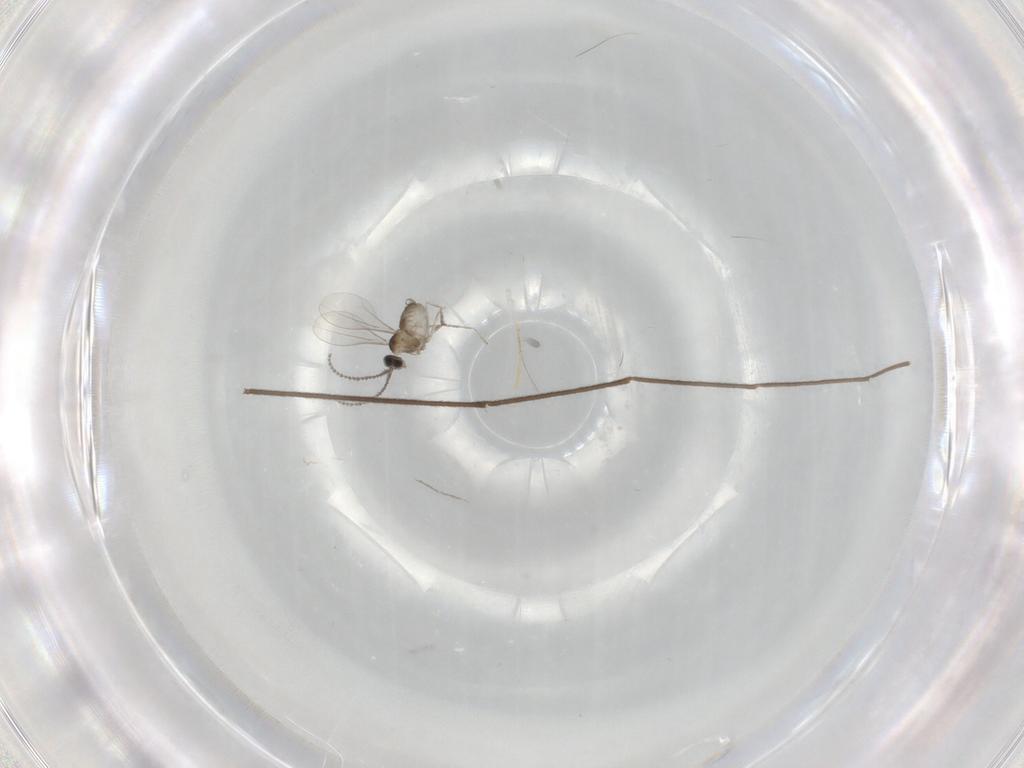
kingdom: Animalia
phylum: Arthropoda
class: Insecta
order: Diptera
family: Cecidomyiidae
